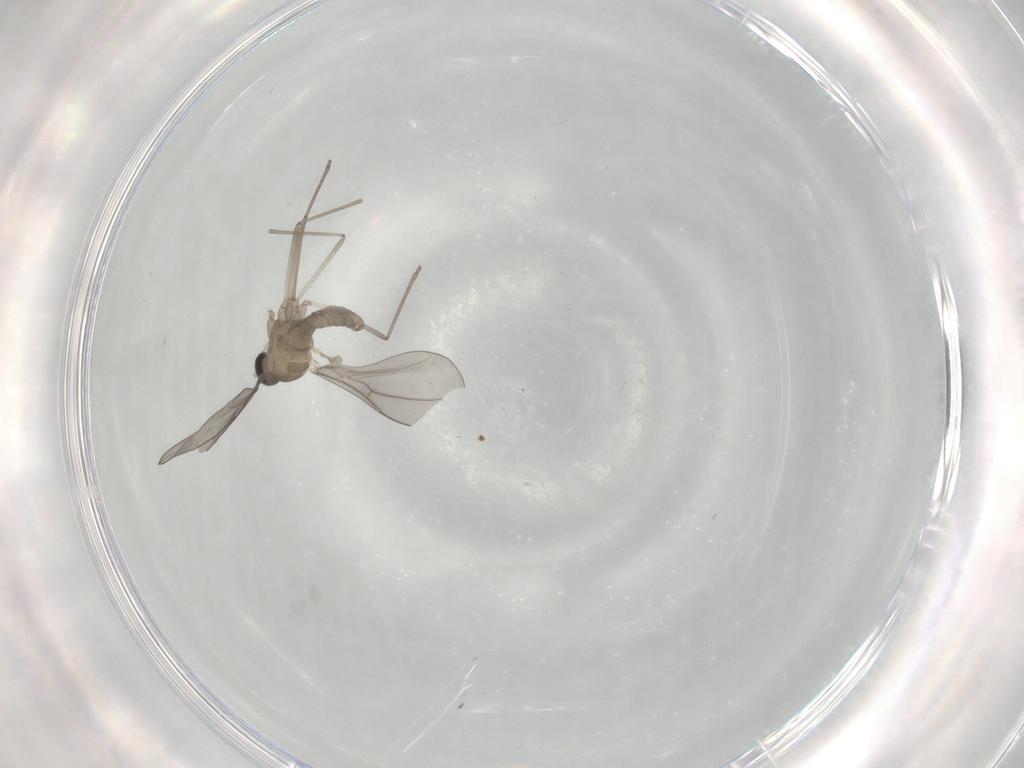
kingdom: Animalia
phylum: Arthropoda
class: Insecta
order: Diptera
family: Cecidomyiidae
